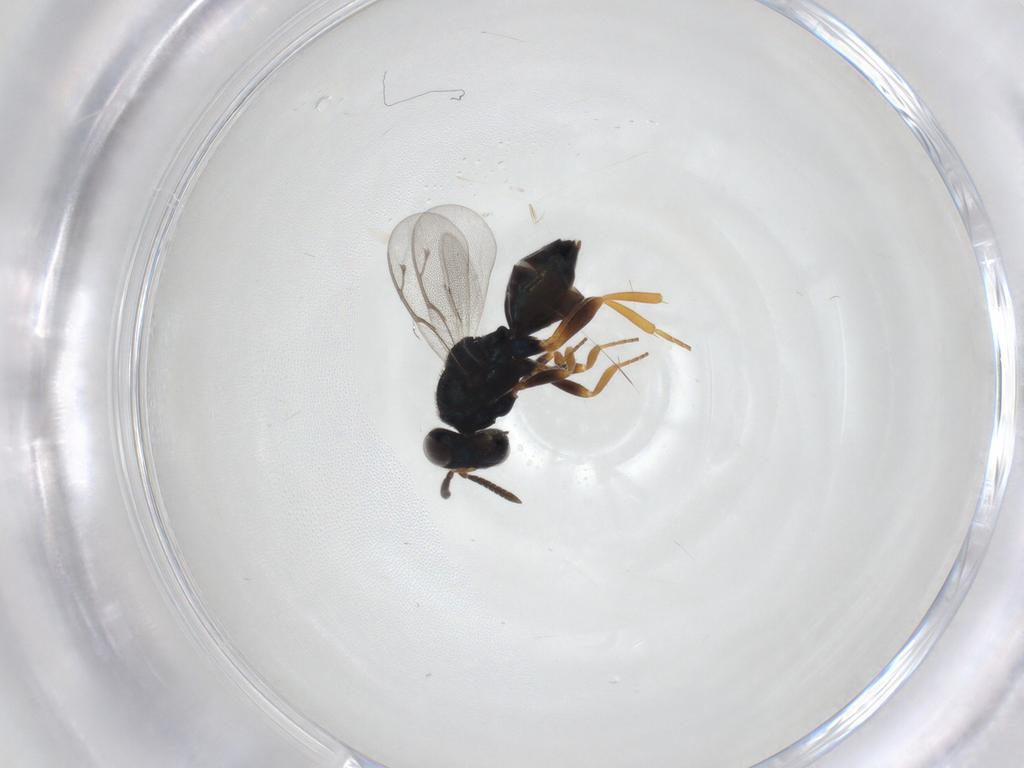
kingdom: Animalia
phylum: Arthropoda
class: Insecta
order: Hymenoptera
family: Pteromalidae
